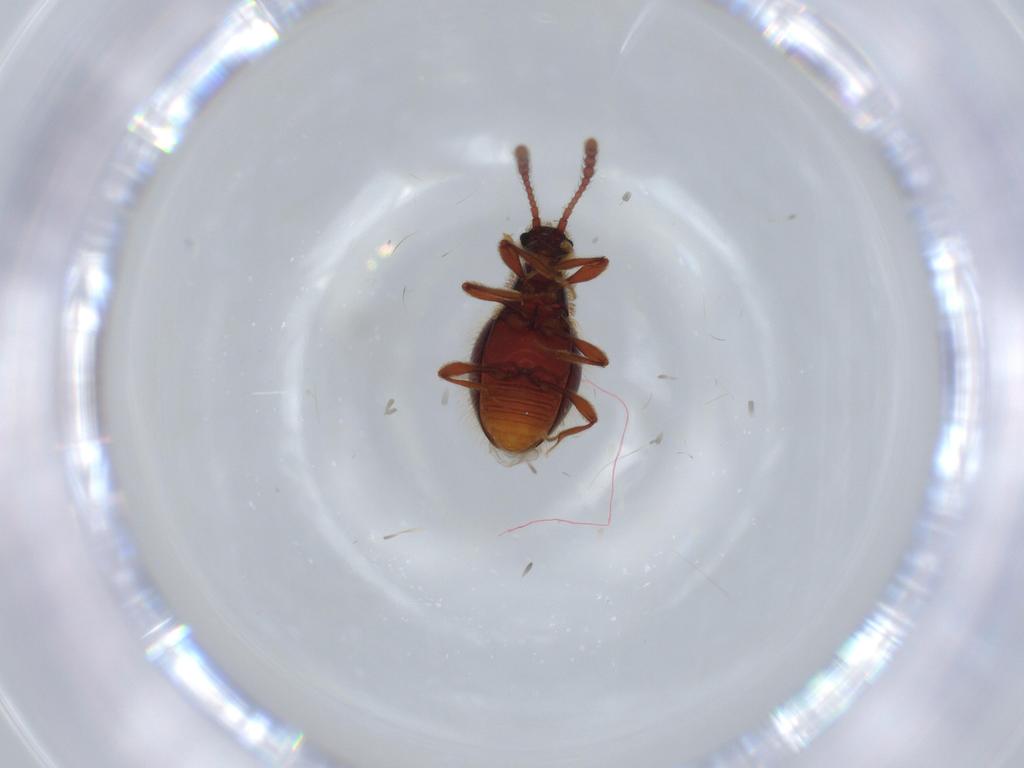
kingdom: Animalia
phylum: Arthropoda
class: Insecta
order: Coleoptera
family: Staphylinidae
